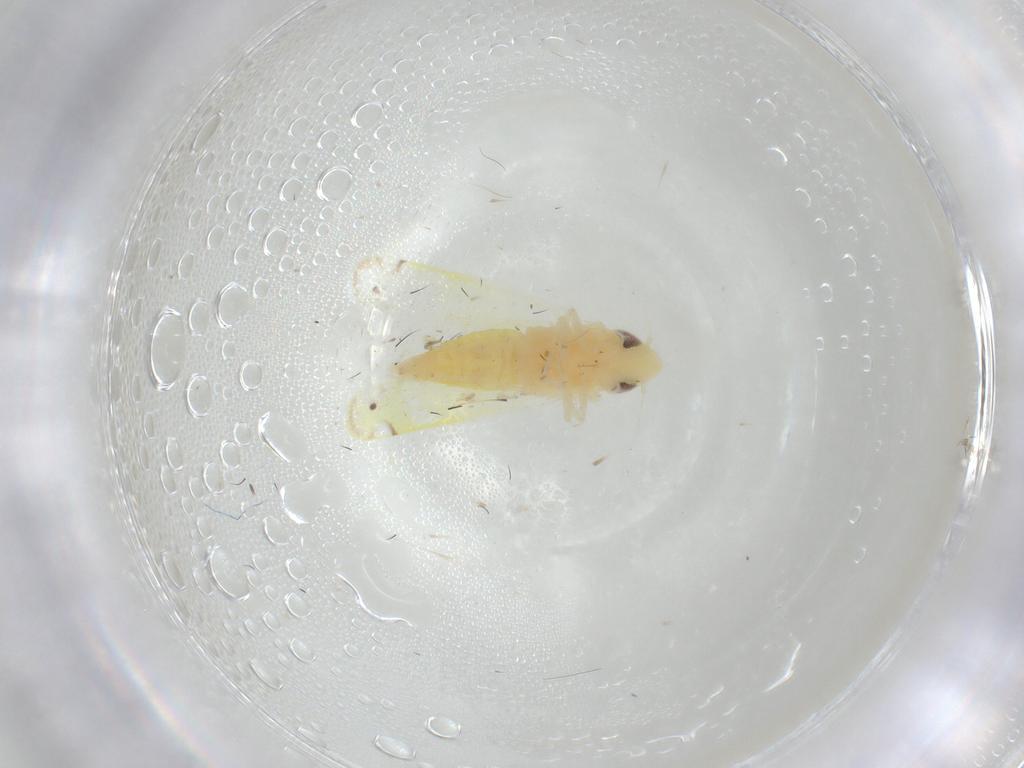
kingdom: Animalia
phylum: Arthropoda
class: Insecta
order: Hemiptera
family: Cicadellidae
